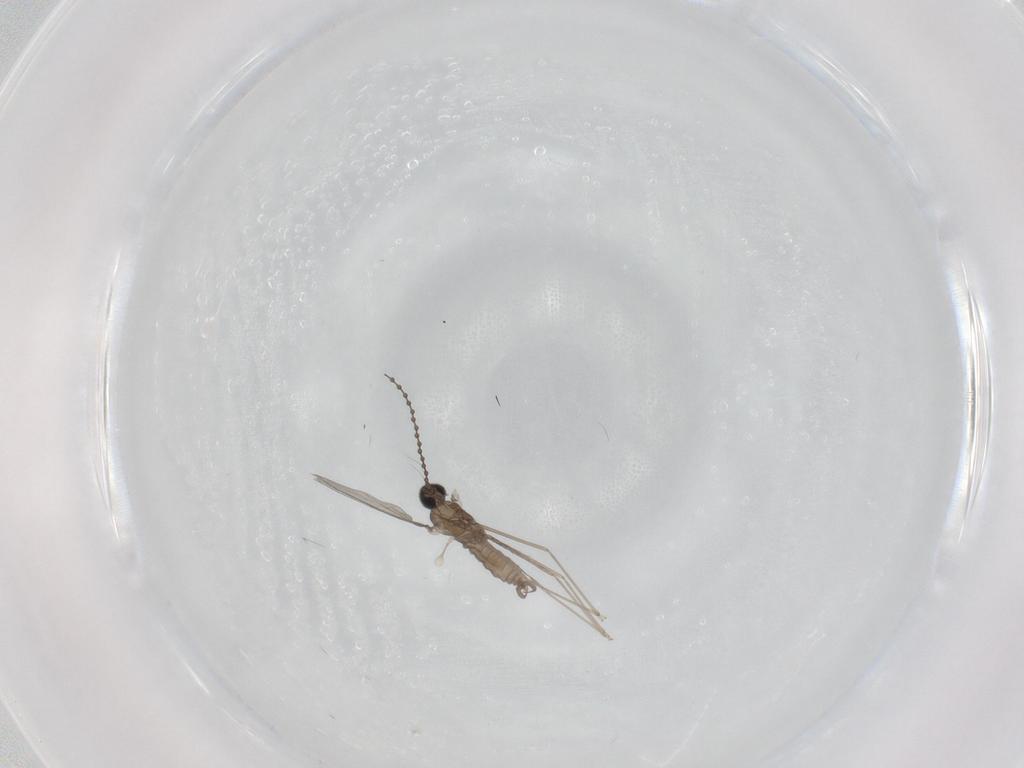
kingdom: Animalia
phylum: Arthropoda
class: Insecta
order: Diptera
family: Cecidomyiidae
